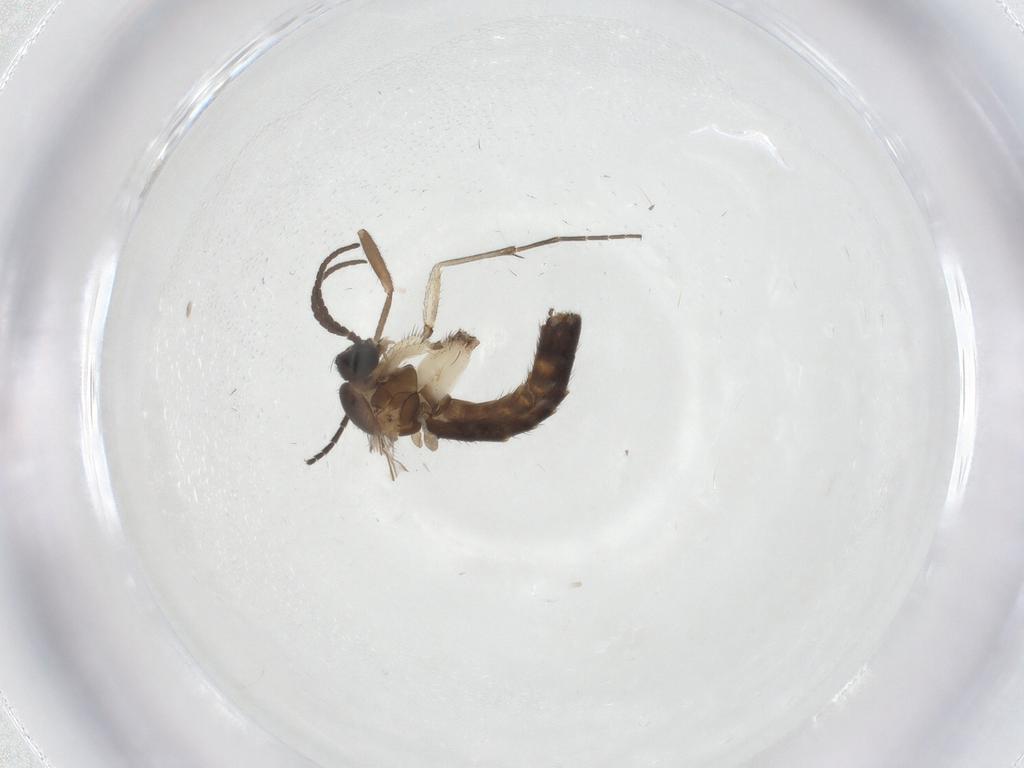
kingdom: Animalia
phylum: Arthropoda
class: Insecta
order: Diptera
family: Keroplatidae
